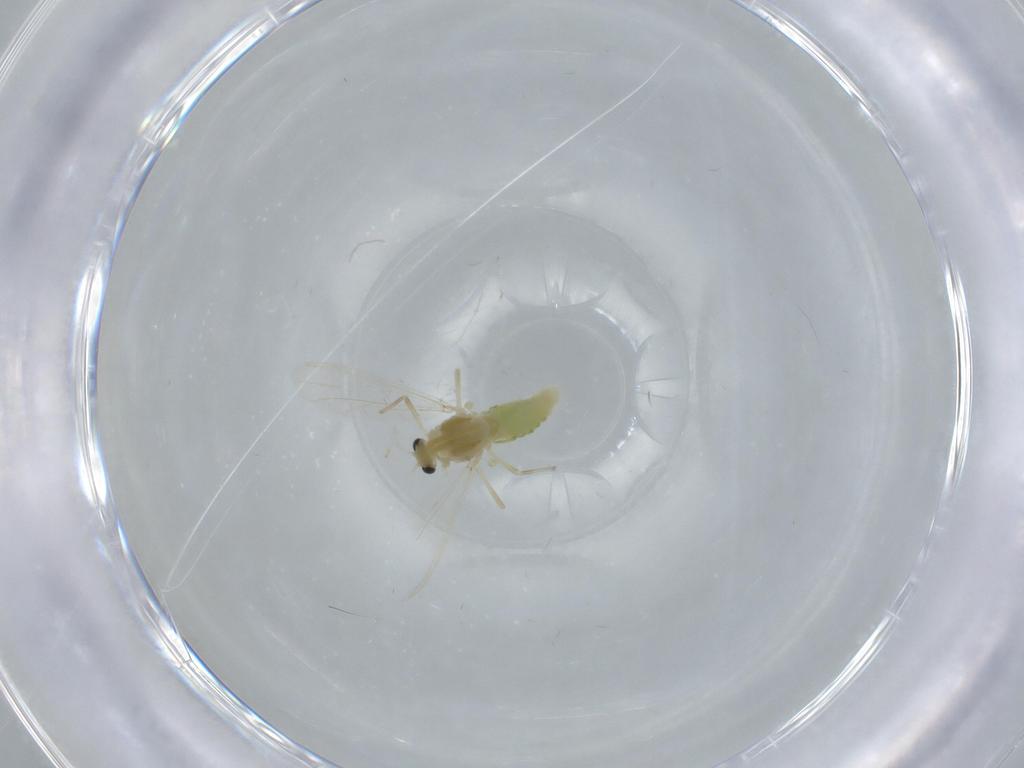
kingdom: Animalia
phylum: Arthropoda
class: Insecta
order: Diptera
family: Chironomidae
